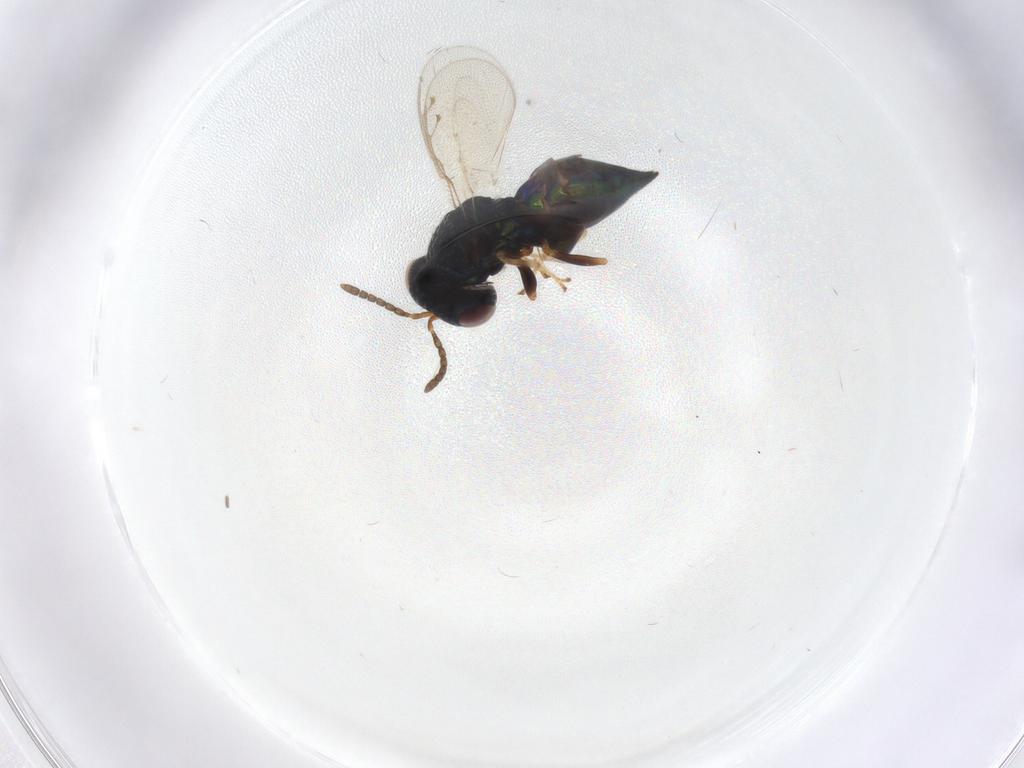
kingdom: Animalia
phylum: Arthropoda
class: Insecta
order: Hymenoptera
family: Pteromalidae
